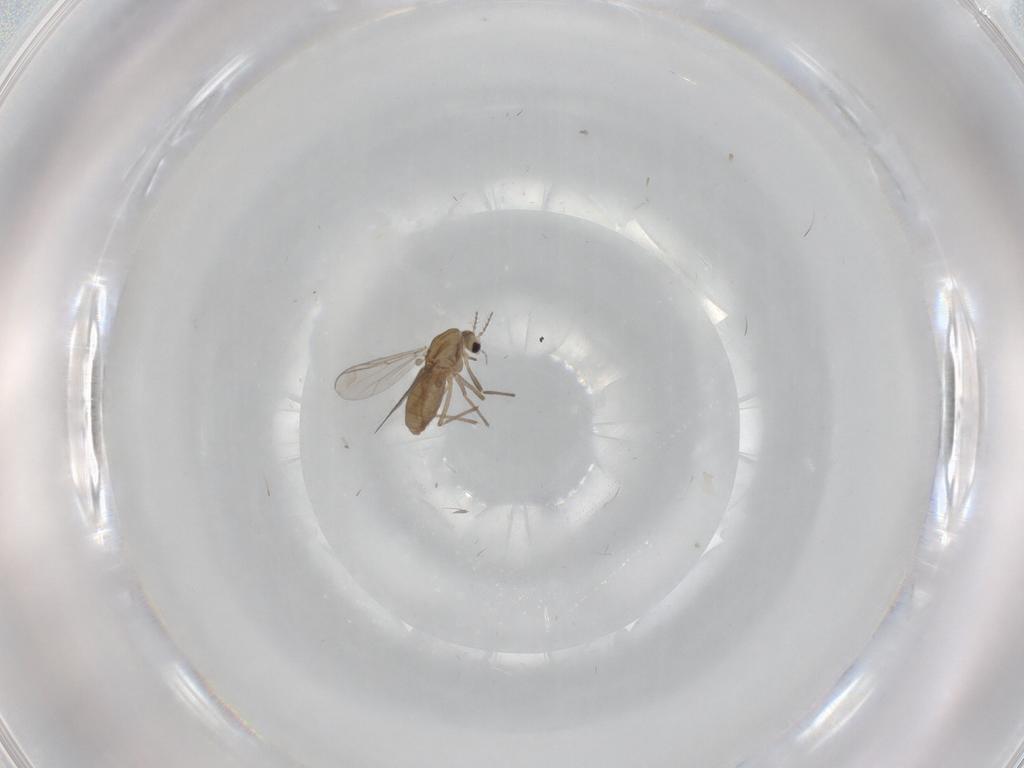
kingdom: Animalia
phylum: Arthropoda
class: Insecta
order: Diptera
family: Chironomidae
